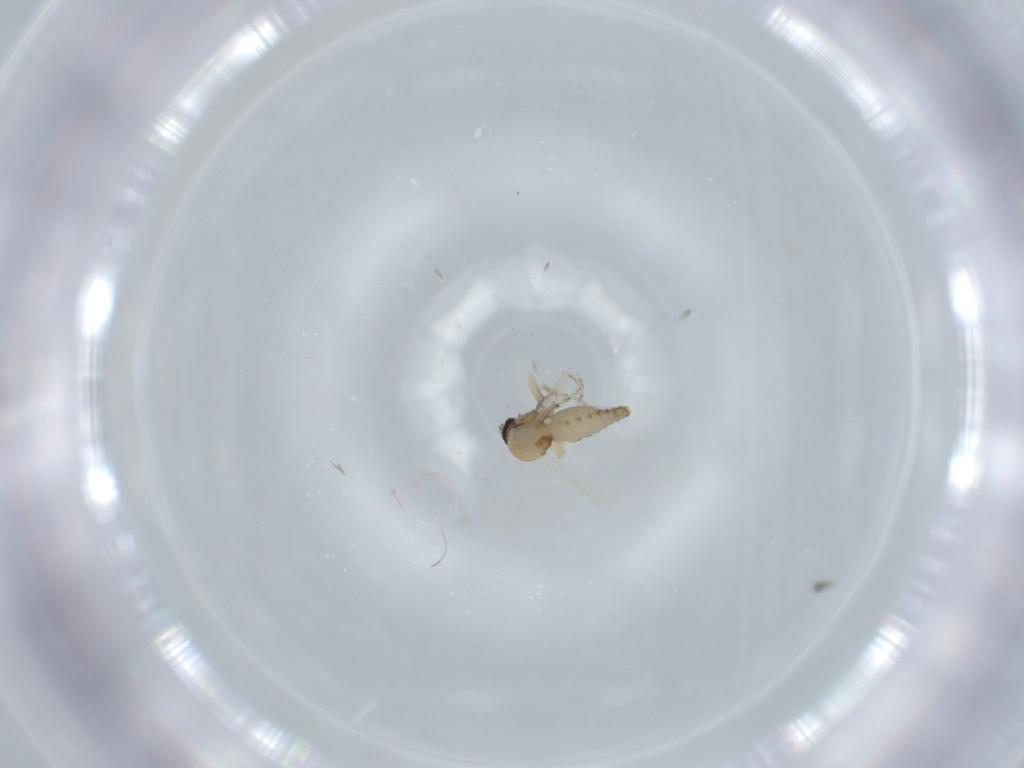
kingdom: Animalia
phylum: Arthropoda
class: Insecta
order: Diptera
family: Ceratopogonidae
